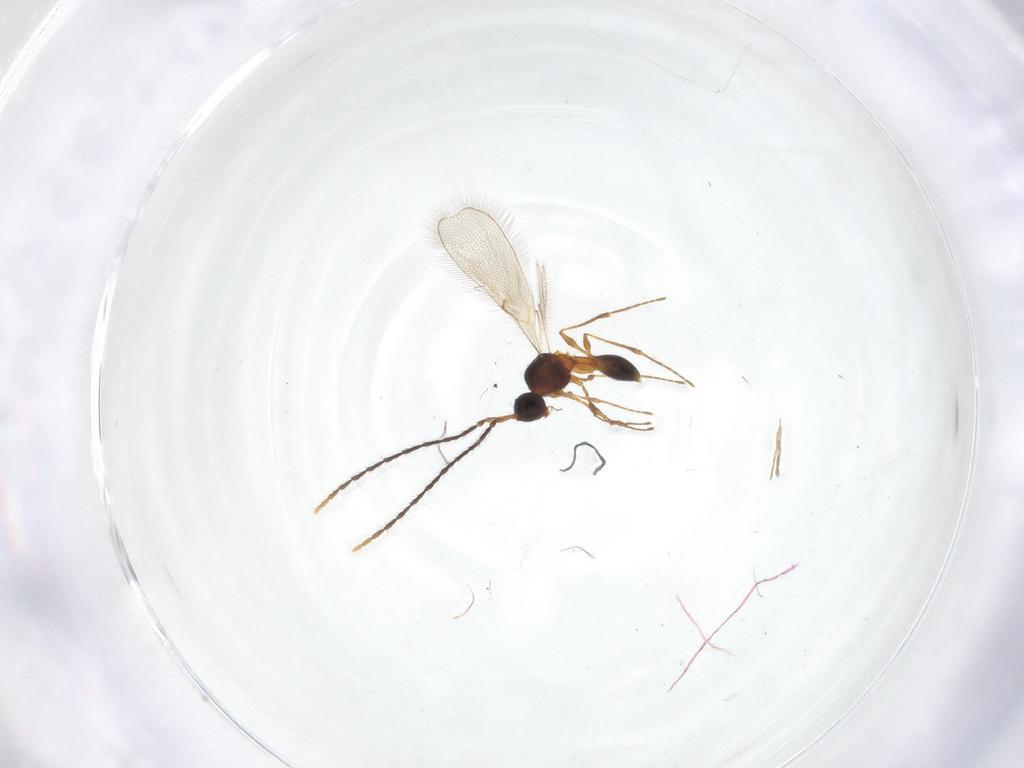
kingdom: Animalia
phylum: Arthropoda
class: Insecta
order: Hymenoptera
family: Diapriidae
